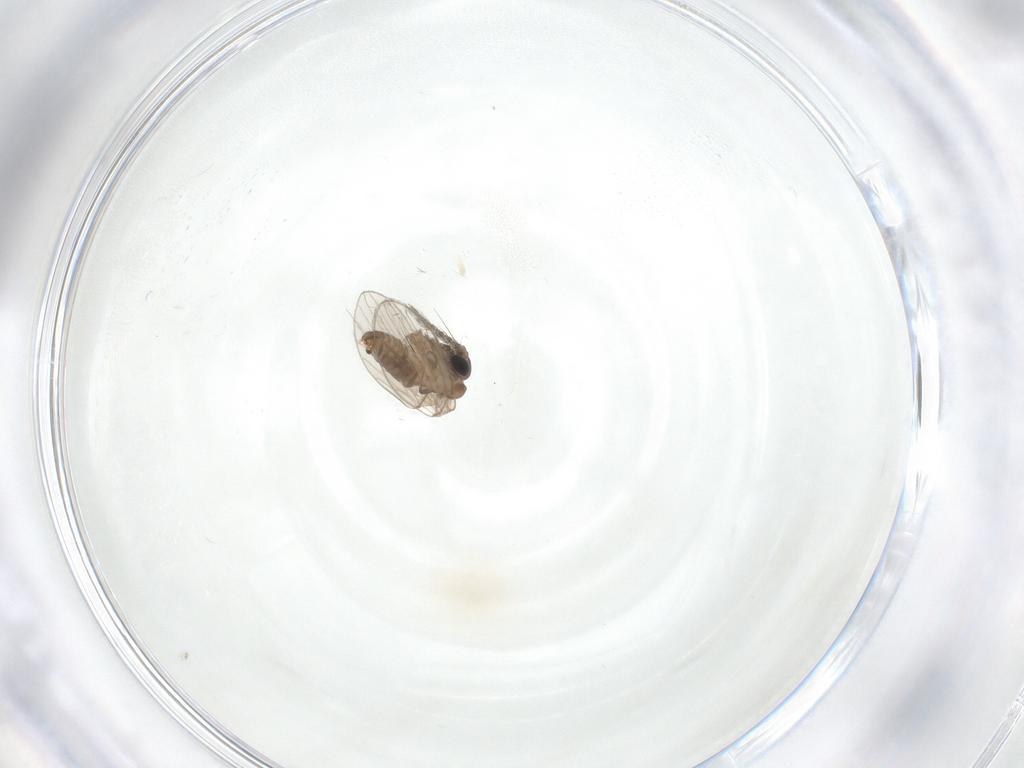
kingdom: Animalia
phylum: Arthropoda
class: Insecta
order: Diptera
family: Psychodidae
